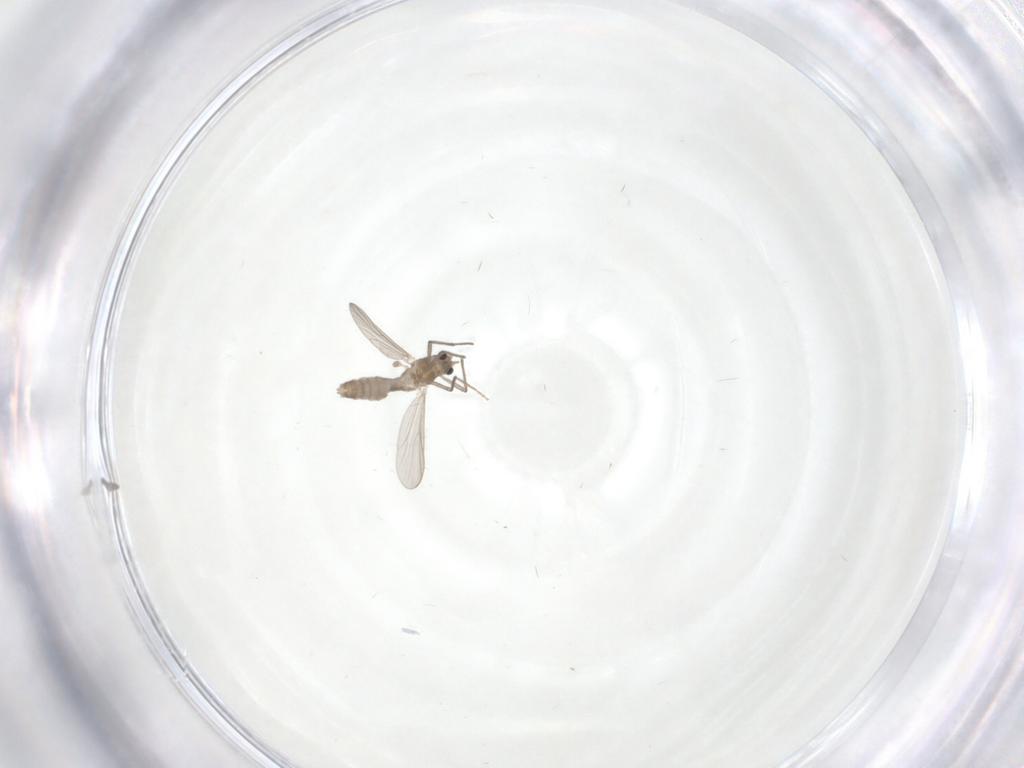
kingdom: Animalia
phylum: Arthropoda
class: Insecta
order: Diptera
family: Chironomidae
